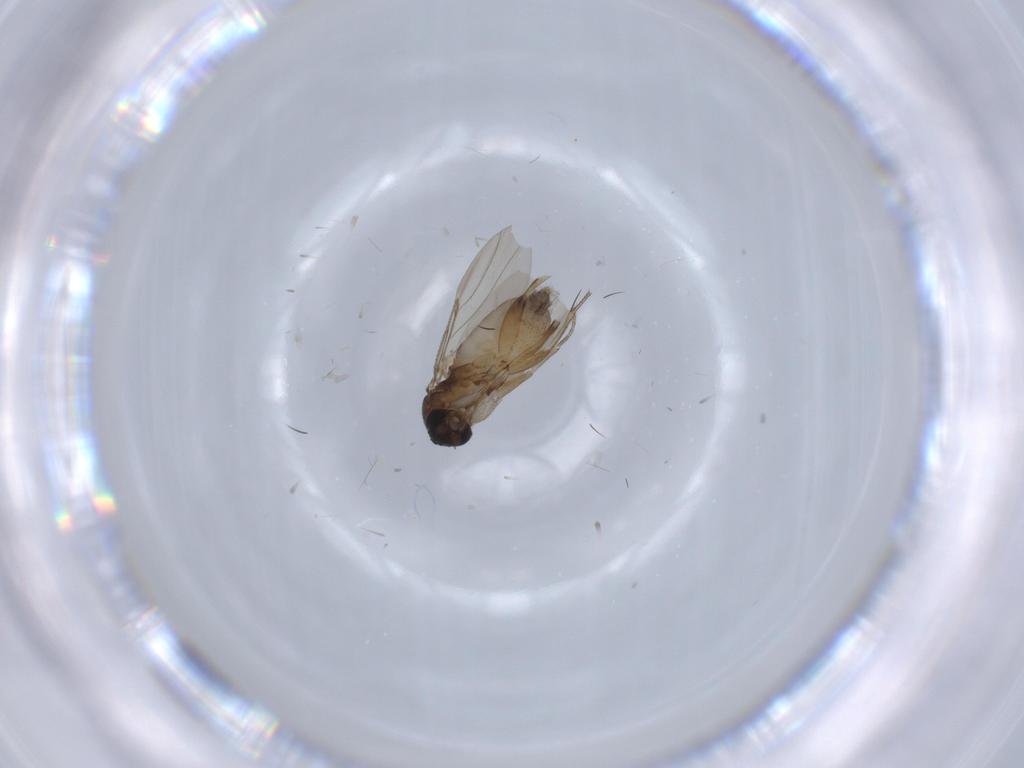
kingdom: Animalia
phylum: Arthropoda
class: Insecta
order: Diptera
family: Phoridae
